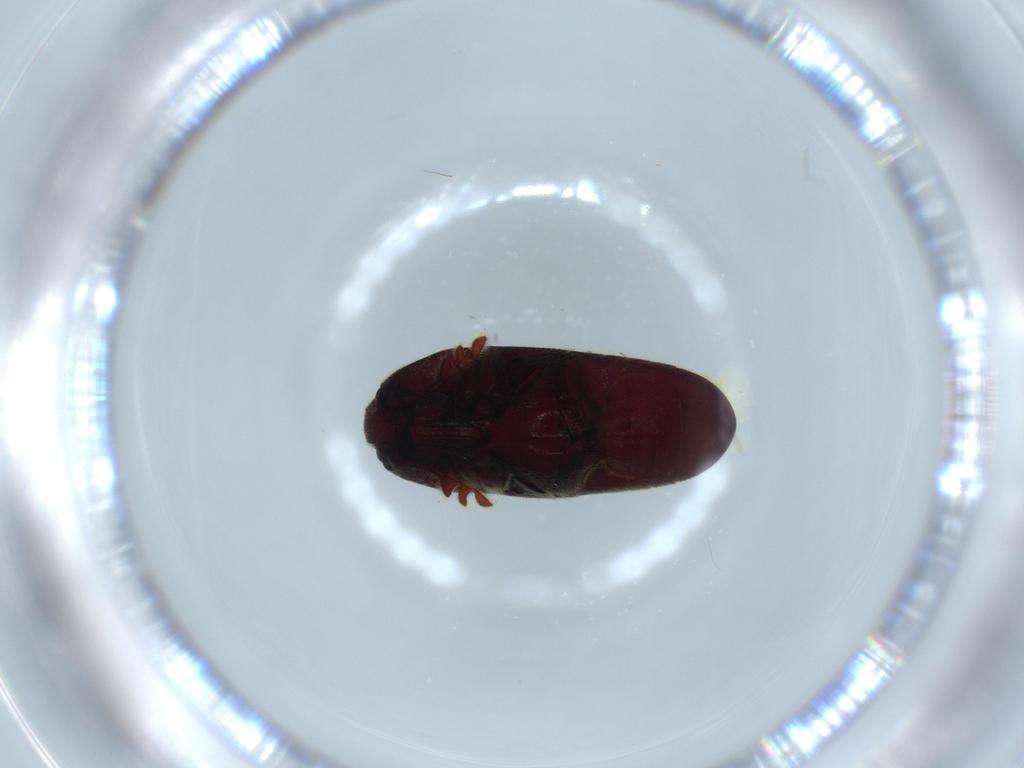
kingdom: Animalia
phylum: Arthropoda
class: Insecta
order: Coleoptera
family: Throscidae
